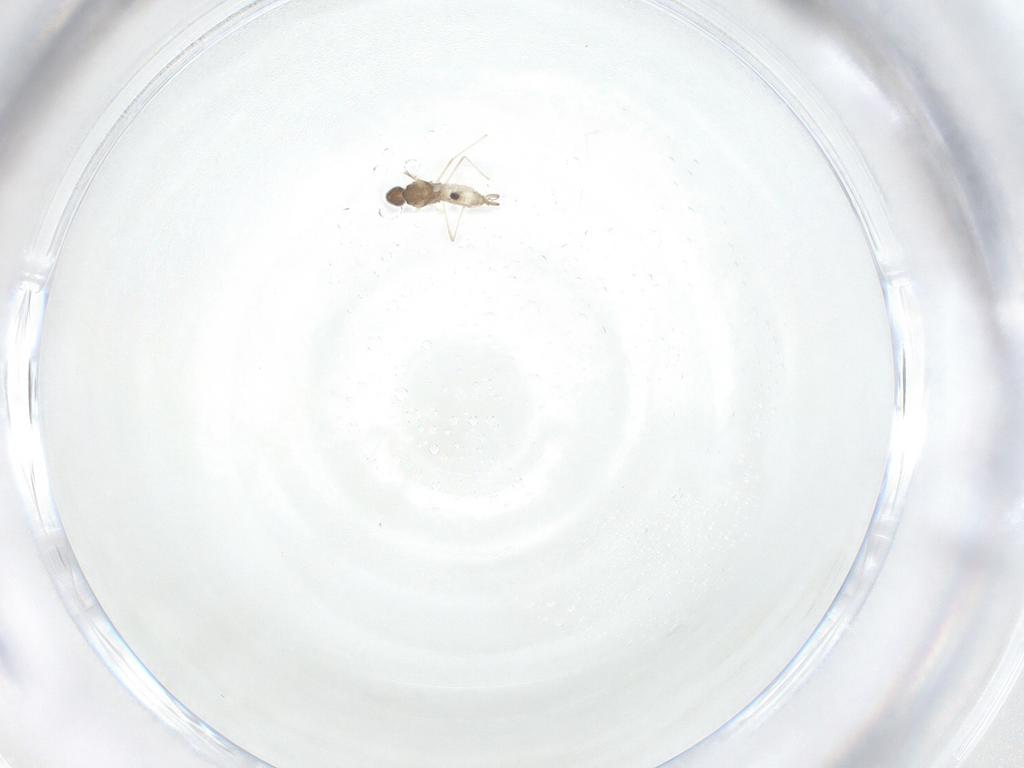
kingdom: Animalia
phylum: Arthropoda
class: Insecta
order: Diptera
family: Cecidomyiidae
